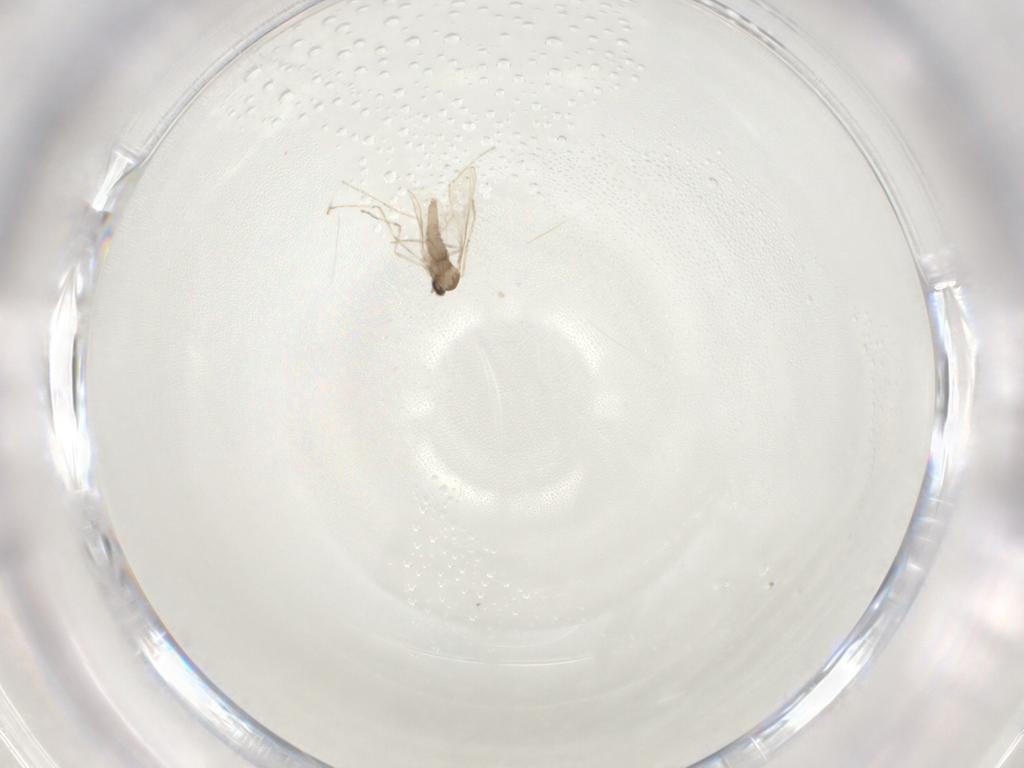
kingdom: Animalia
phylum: Arthropoda
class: Insecta
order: Diptera
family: Cecidomyiidae
